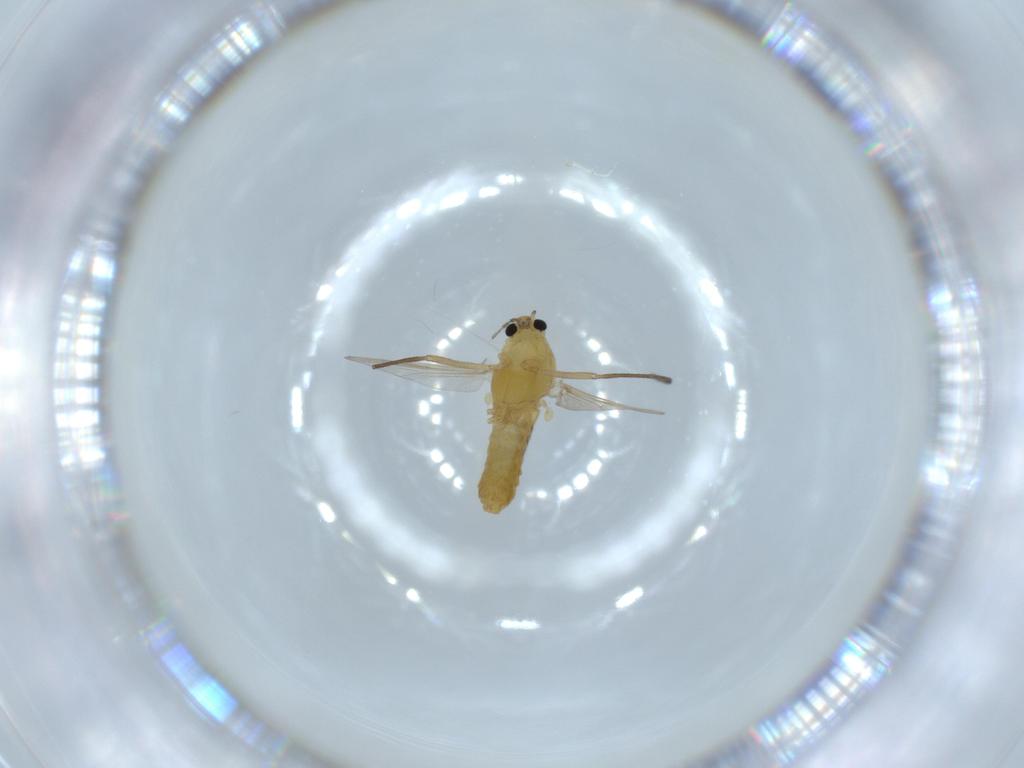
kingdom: Animalia
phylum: Arthropoda
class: Insecta
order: Diptera
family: Chironomidae
